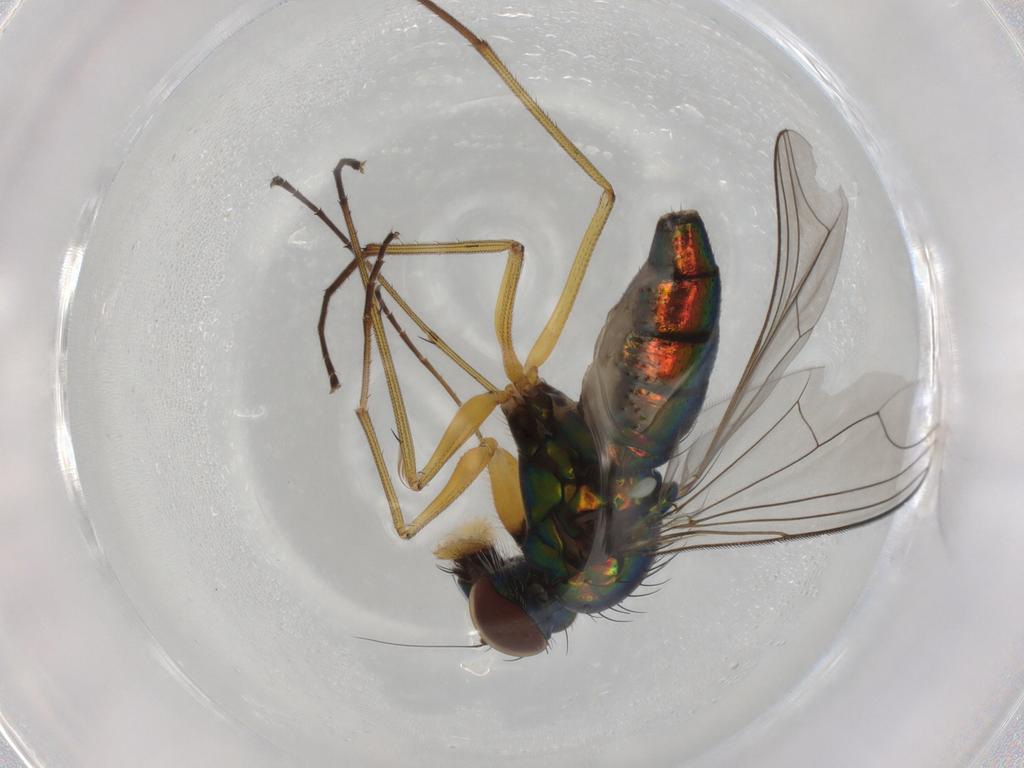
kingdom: Animalia
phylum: Arthropoda
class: Insecta
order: Diptera
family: Dolichopodidae
